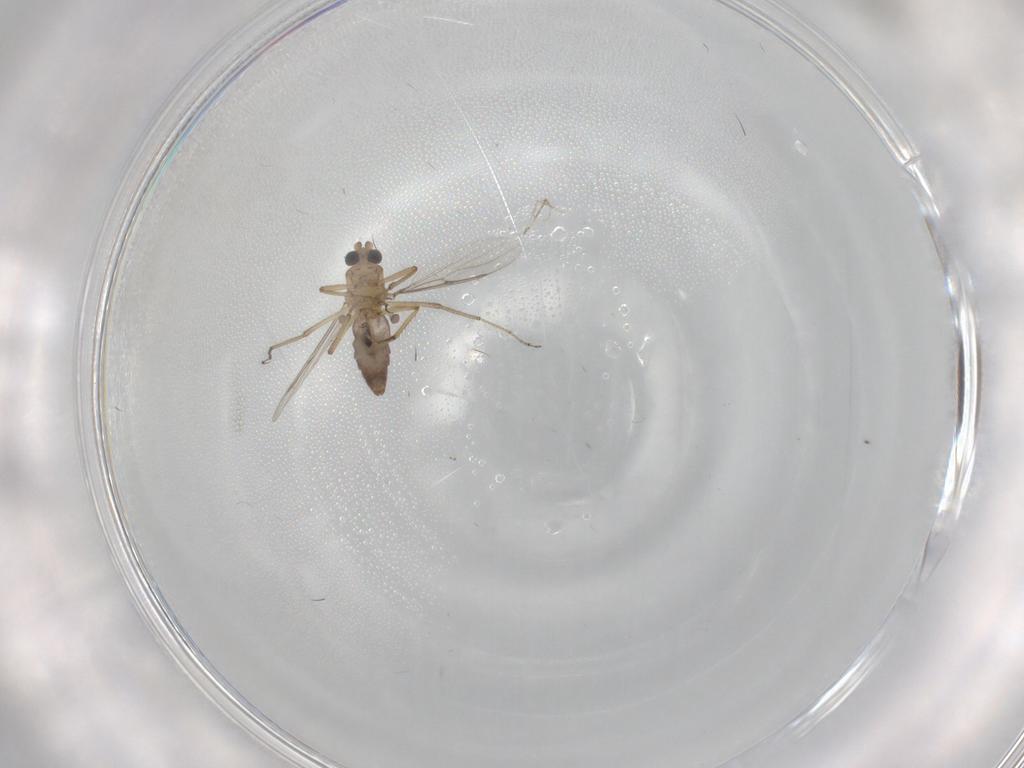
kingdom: Animalia
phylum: Arthropoda
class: Insecta
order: Diptera
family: Ceratopogonidae
